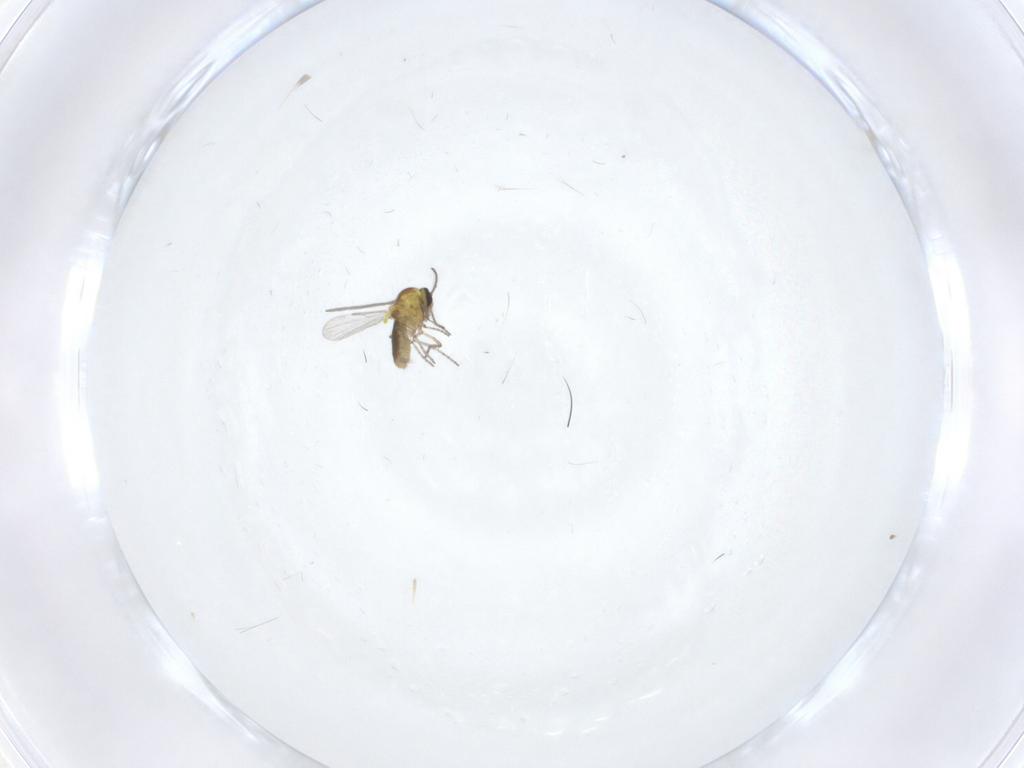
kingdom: Animalia
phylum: Arthropoda
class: Insecta
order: Diptera
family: Ceratopogonidae
